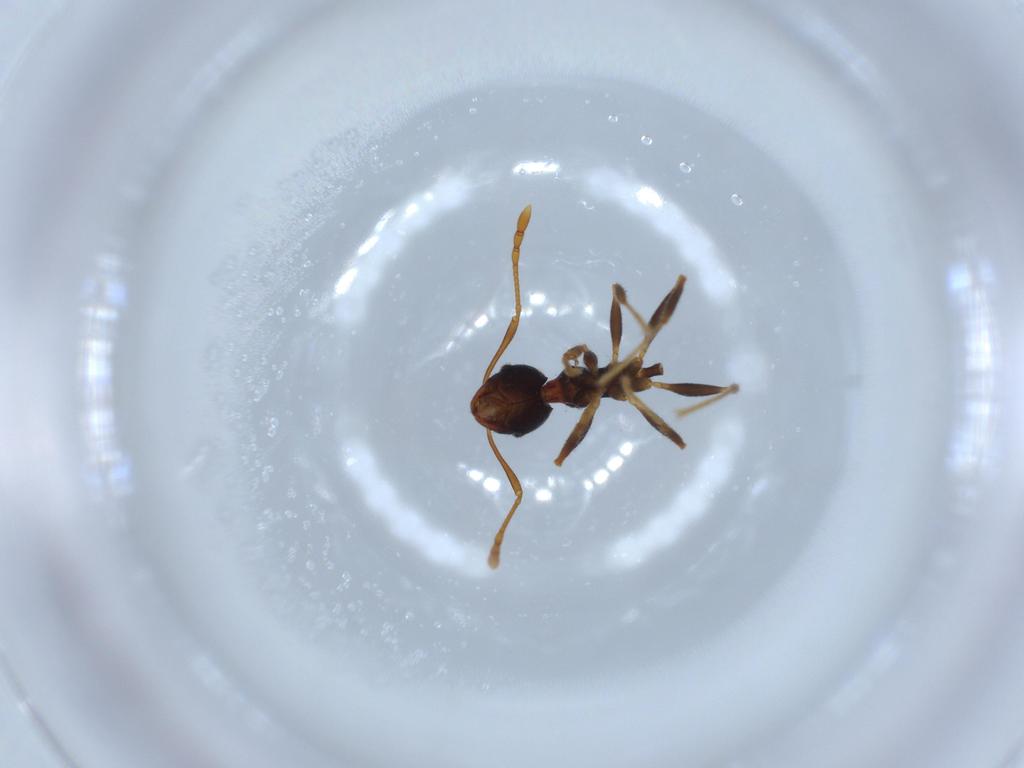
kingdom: Animalia
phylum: Arthropoda
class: Insecta
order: Hymenoptera
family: Formicidae
